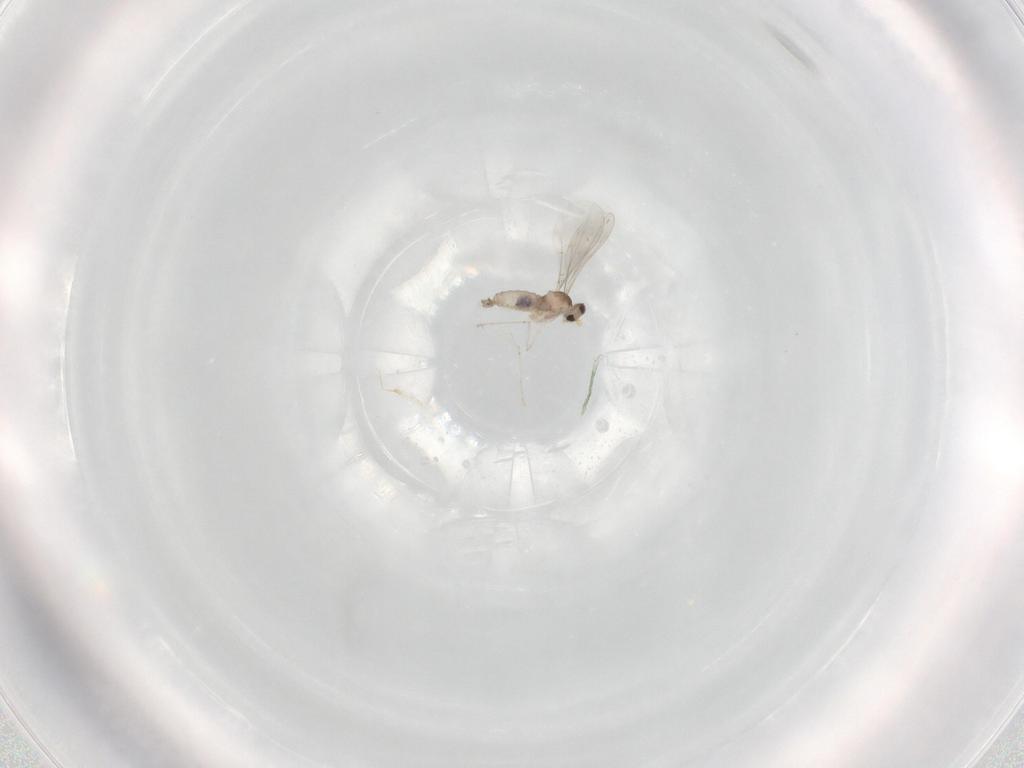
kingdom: Animalia
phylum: Arthropoda
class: Insecta
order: Diptera
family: Cecidomyiidae
